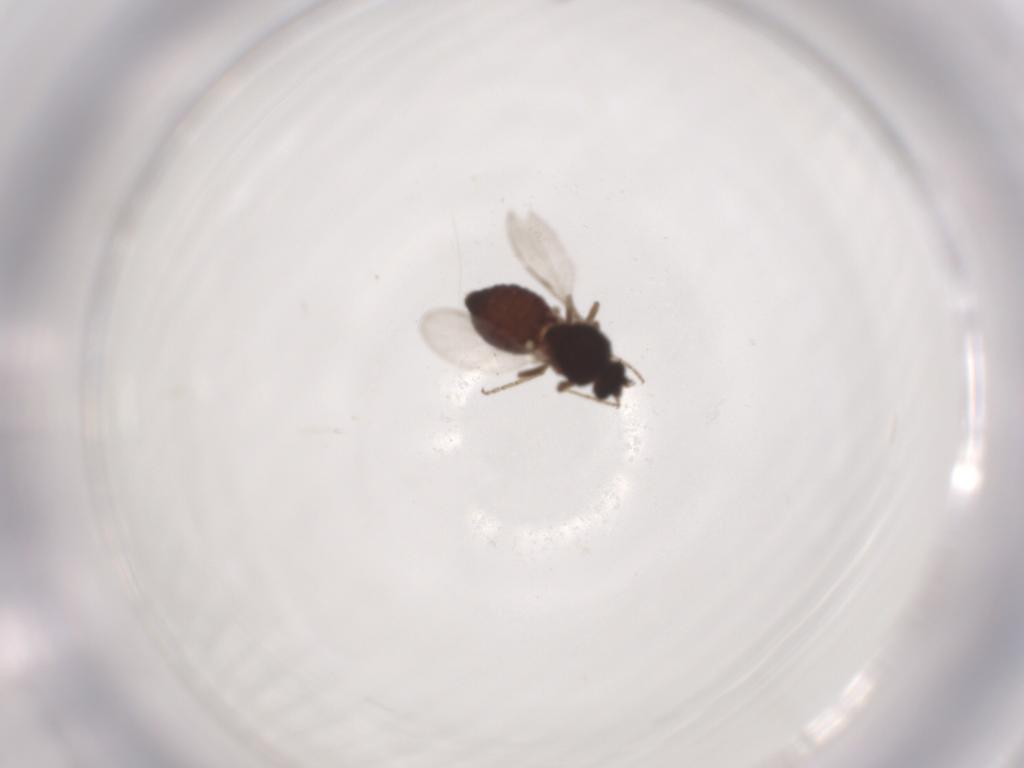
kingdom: Animalia
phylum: Arthropoda
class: Insecta
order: Diptera
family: Ceratopogonidae
